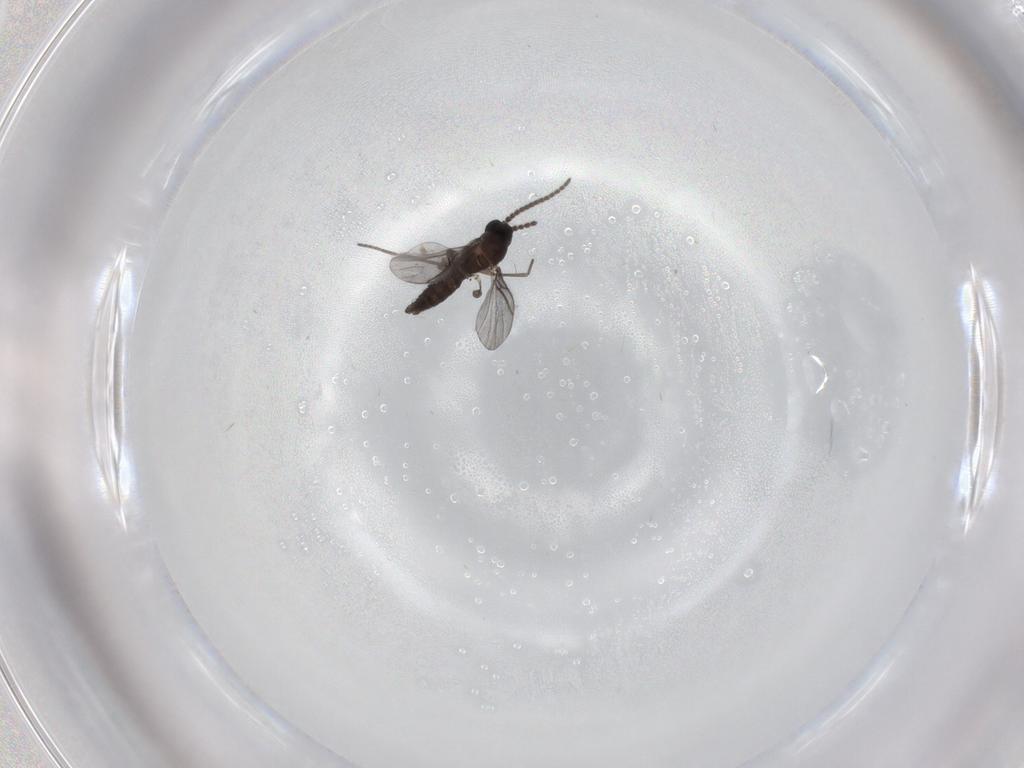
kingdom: Animalia
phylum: Arthropoda
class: Insecta
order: Diptera
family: Chironomidae
